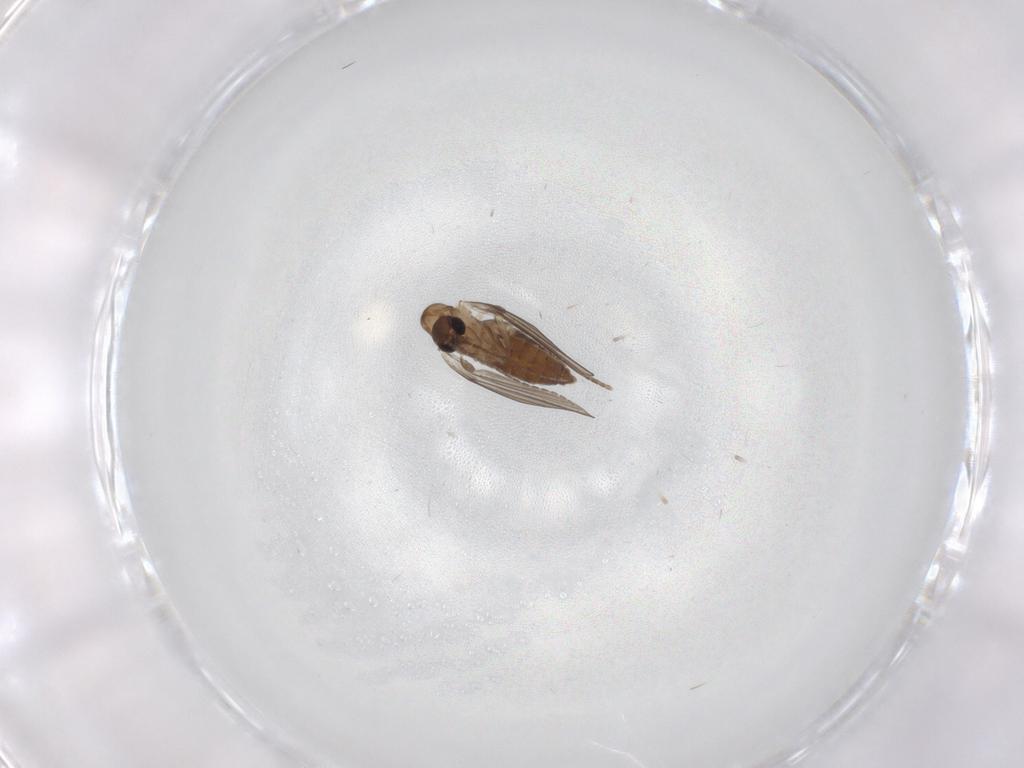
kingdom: Animalia
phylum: Arthropoda
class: Insecta
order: Diptera
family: Psychodidae
